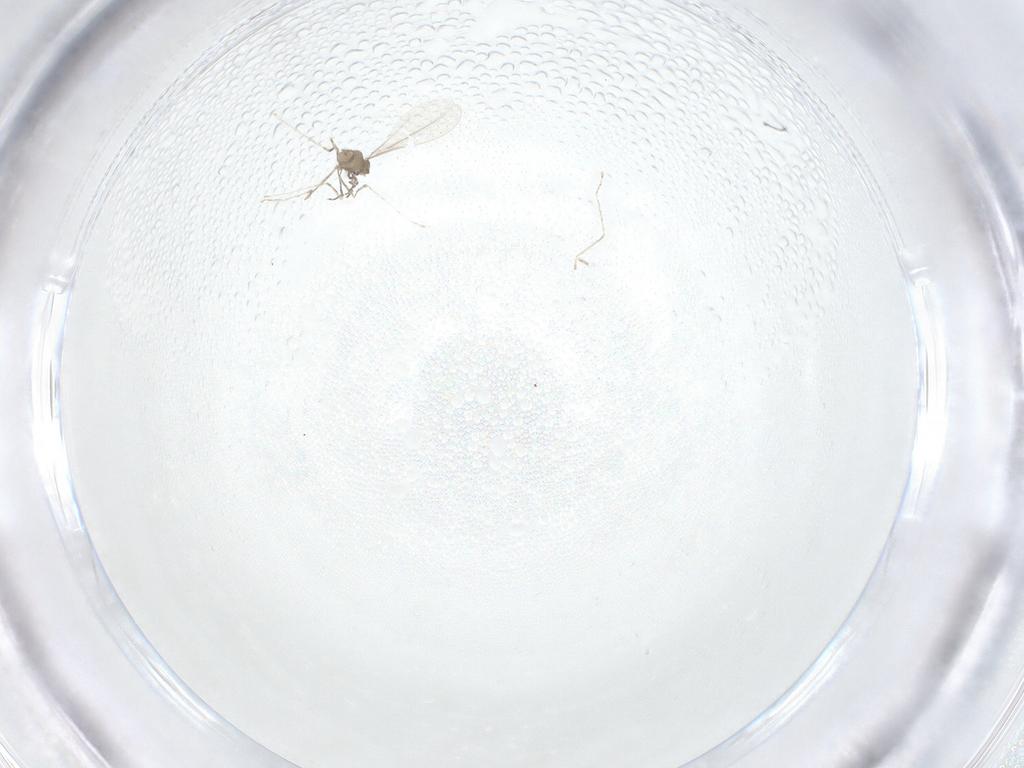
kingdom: Animalia
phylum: Arthropoda
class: Insecta
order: Diptera
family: Cecidomyiidae
